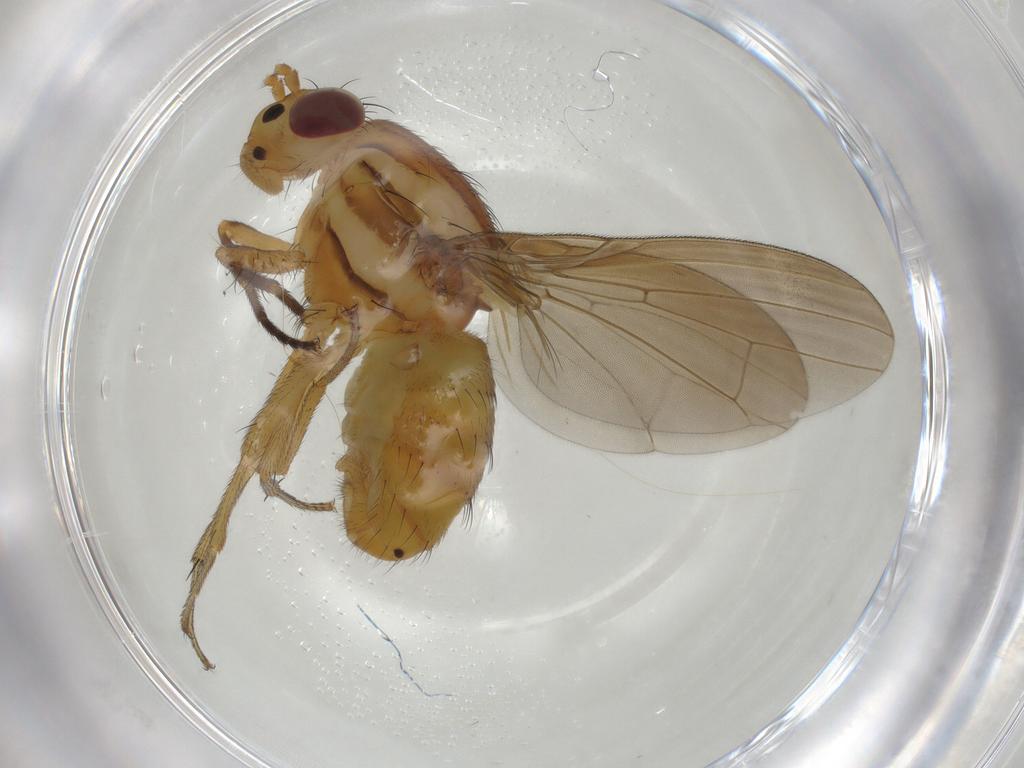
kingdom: Animalia
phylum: Arthropoda
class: Insecta
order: Diptera
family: Lauxaniidae
